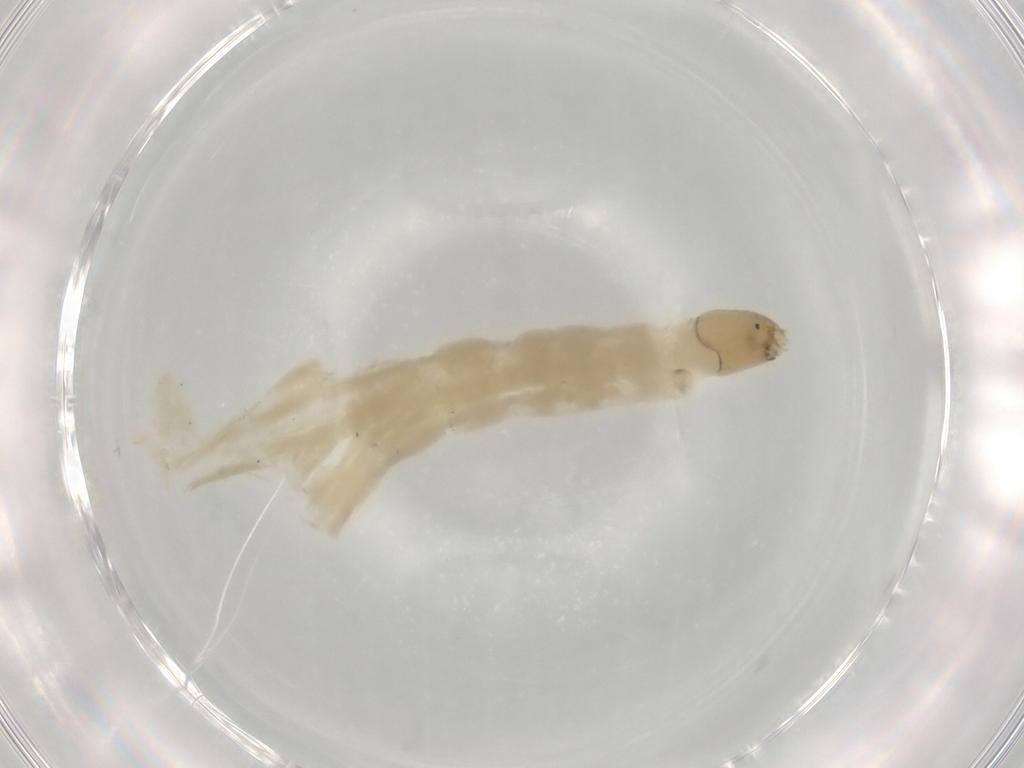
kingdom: Animalia
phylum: Arthropoda
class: Insecta
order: Diptera
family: Chironomidae
